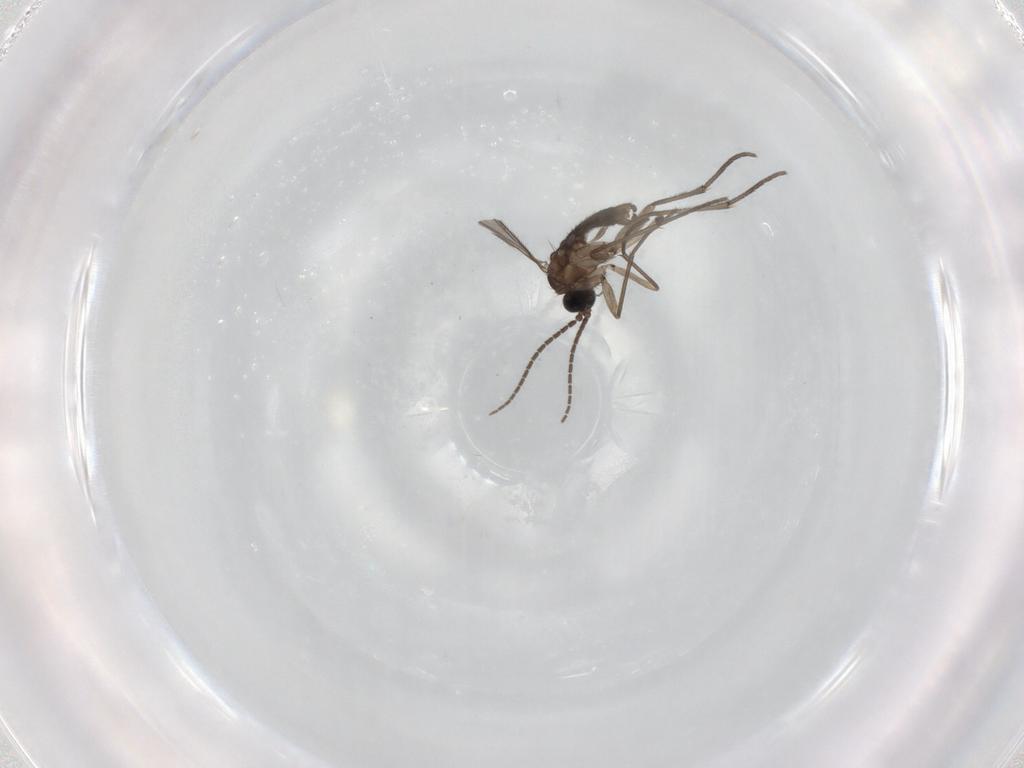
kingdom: Animalia
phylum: Arthropoda
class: Insecta
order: Diptera
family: Sciaridae
